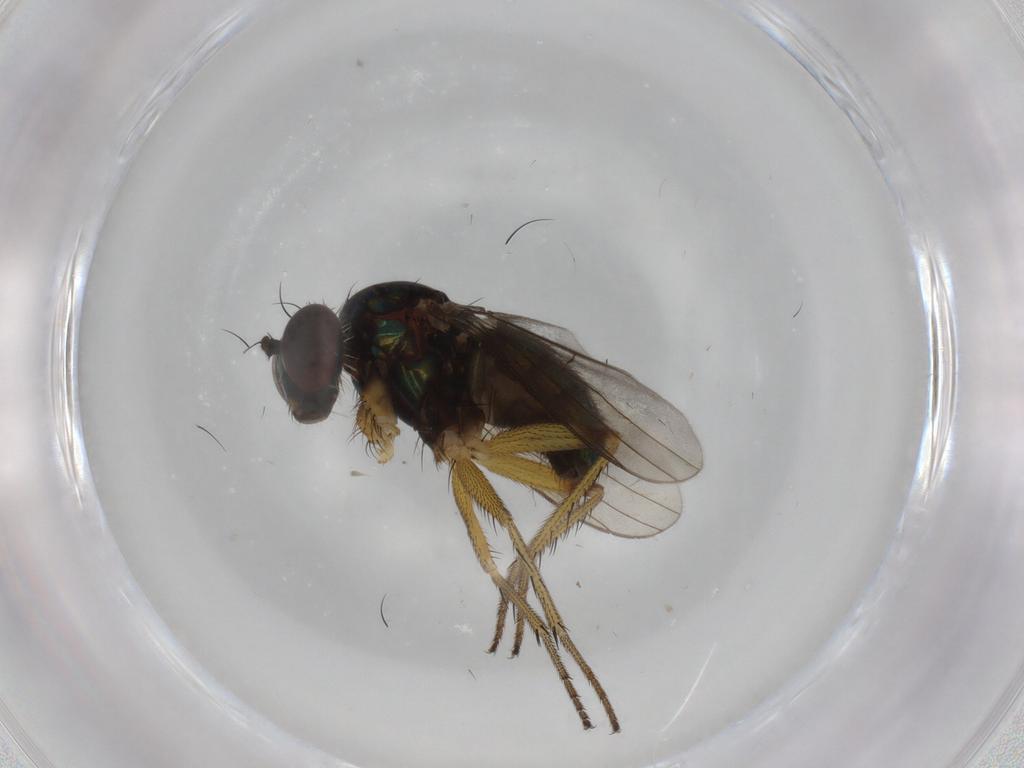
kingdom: Animalia
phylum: Arthropoda
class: Insecta
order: Diptera
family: Dolichopodidae
